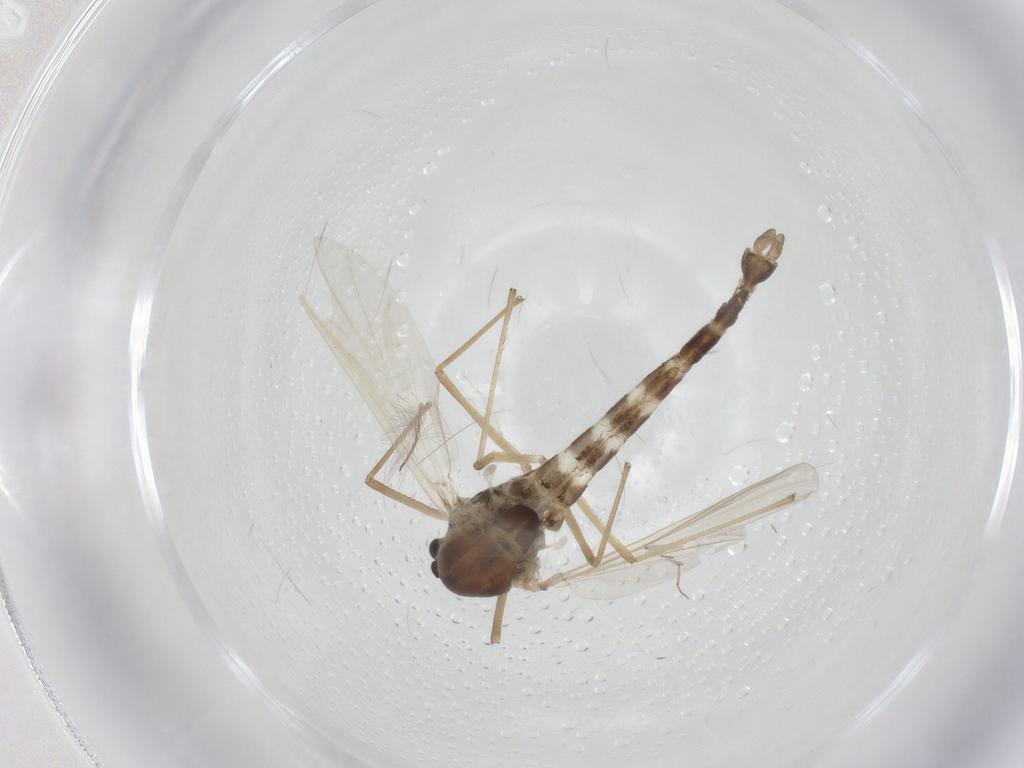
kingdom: Animalia
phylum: Arthropoda
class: Insecta
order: Diptera
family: Chironomidae
